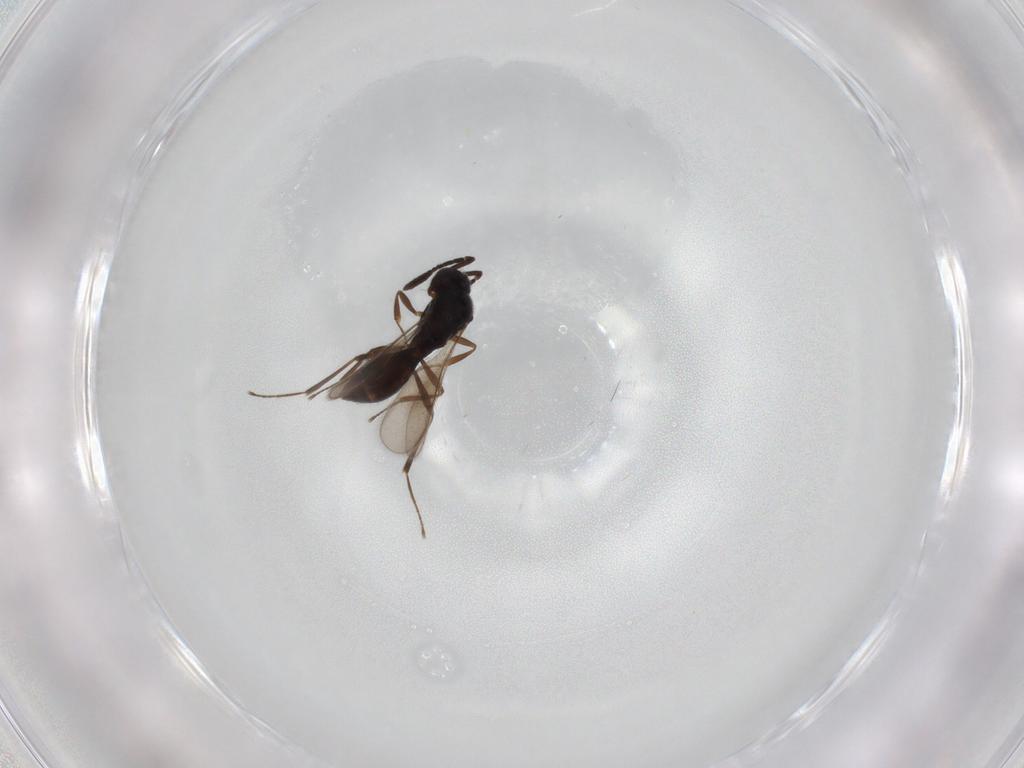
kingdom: Animalia
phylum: Arthropoda
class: Insecta
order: Hymenoptera
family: Scelionidae
